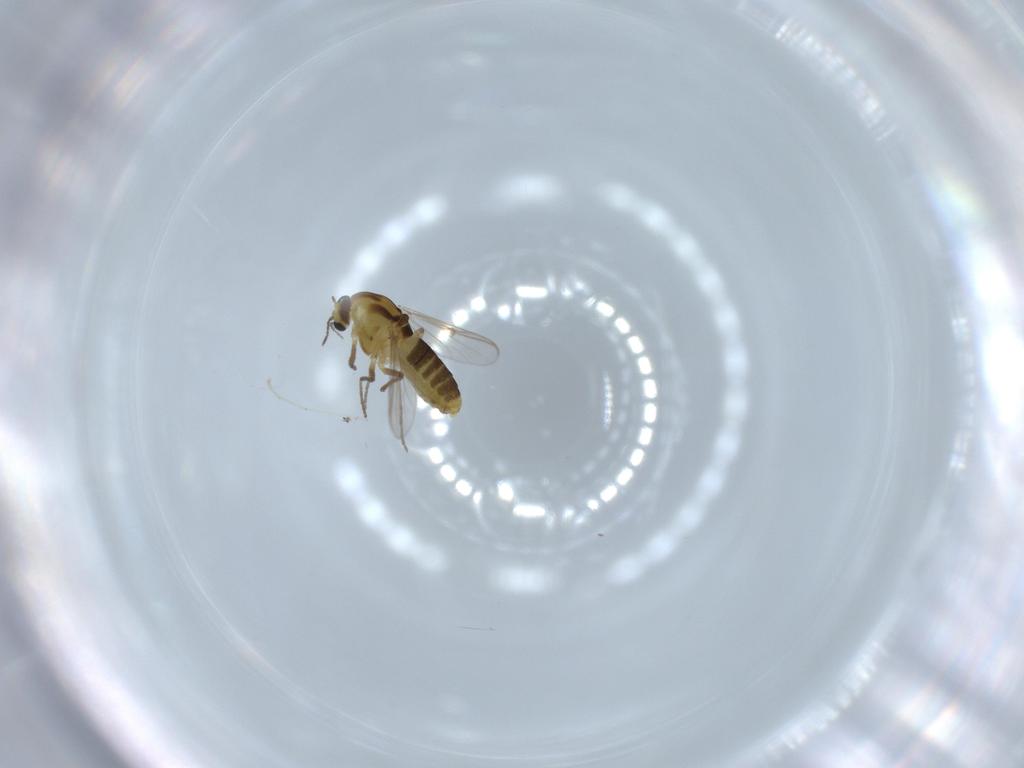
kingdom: Animalia
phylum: Arthropoda
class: Insecta
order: Diptera
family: Chironomidae
